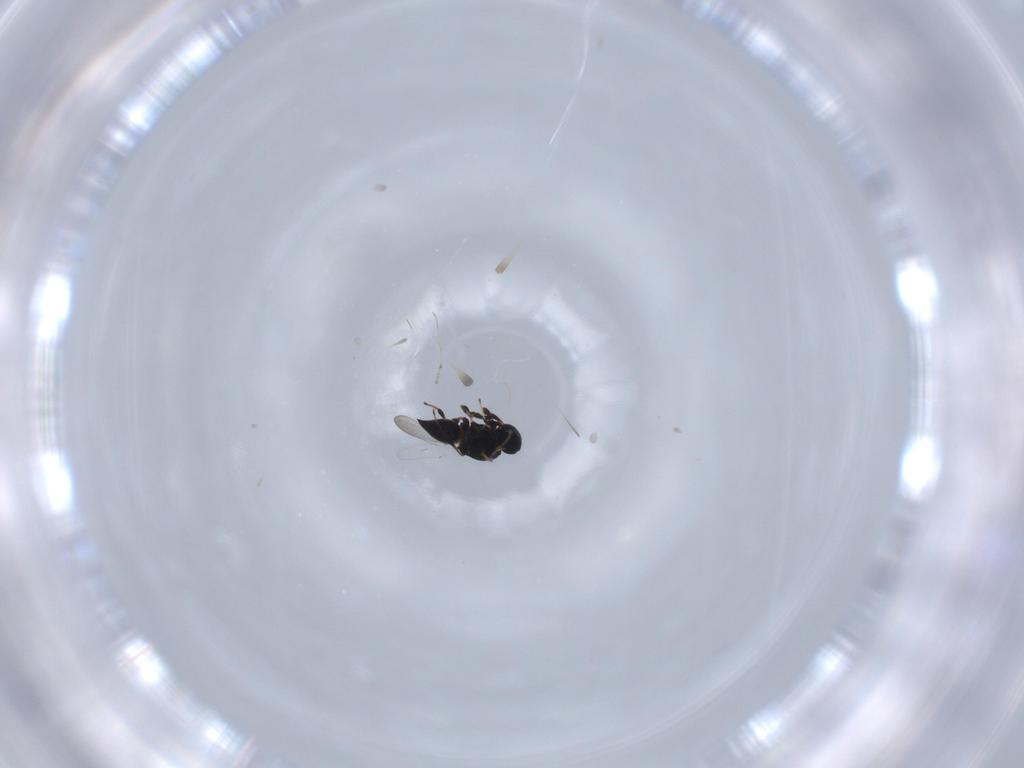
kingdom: Animalia
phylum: Arthropoda
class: Insecta
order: Hymenoptera
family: Platygastridae
